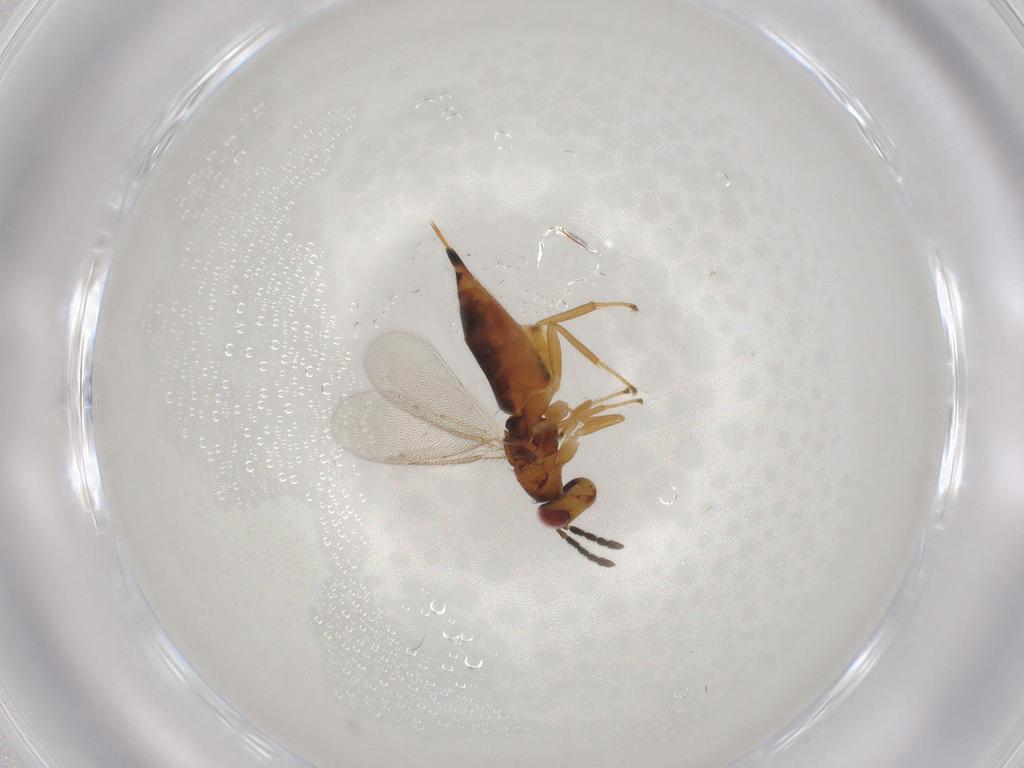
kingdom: Animalia
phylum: Arthropoda
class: Insecta
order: Hymenoptera
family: Eulophidae
